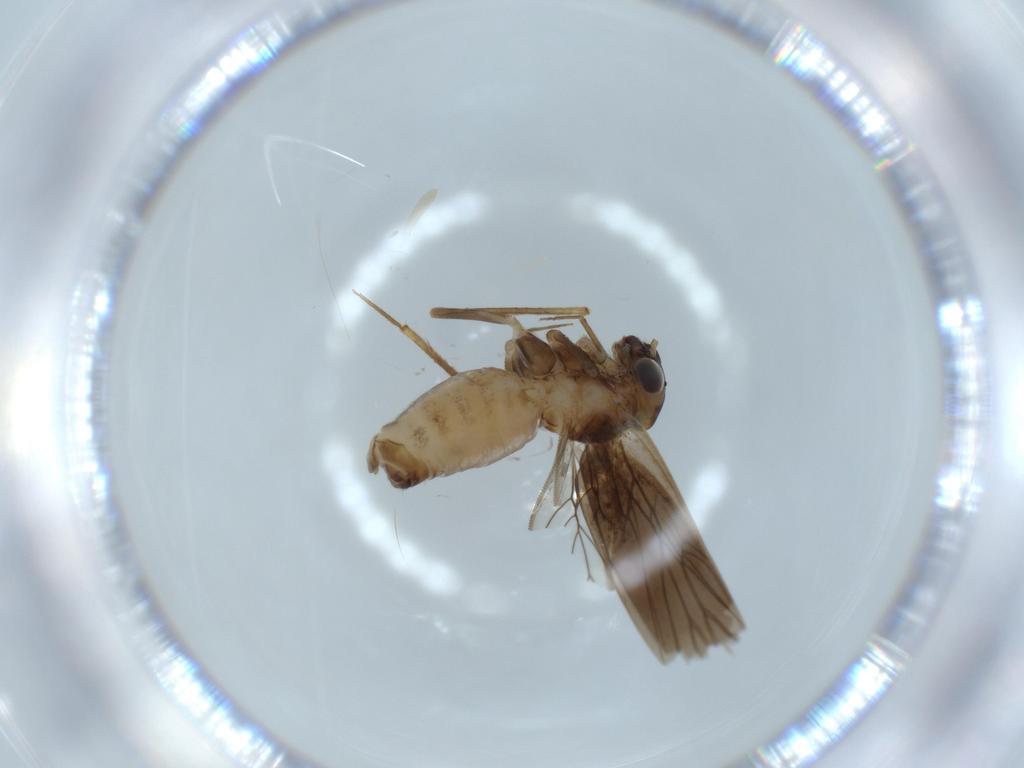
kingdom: Animalia
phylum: Arthropoda
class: Insecta
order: Psocodea
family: Lepidopsocidae
